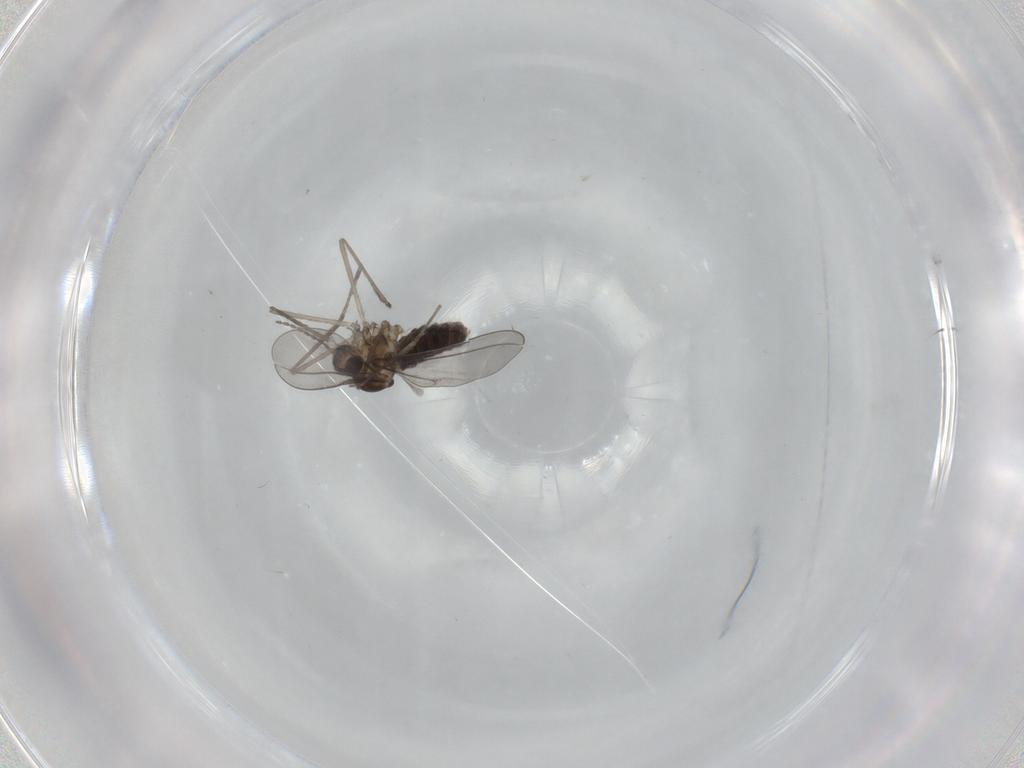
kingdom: Animalia
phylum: Arthropoda
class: Insecta
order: Diptera
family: Cecidomyiidae
